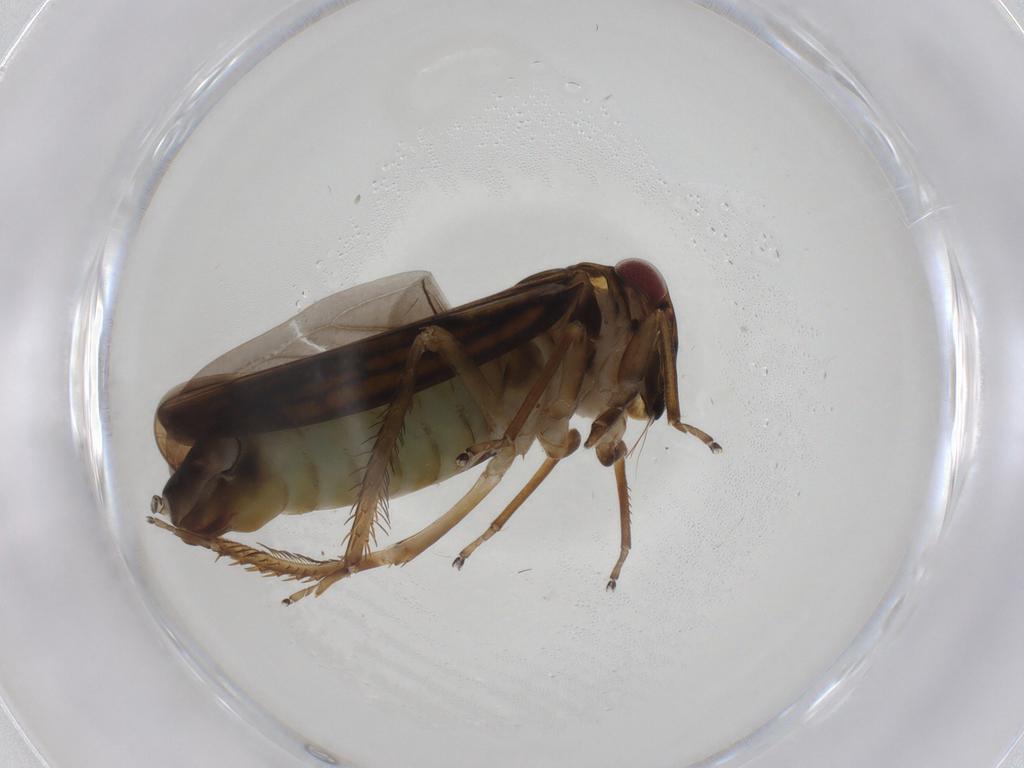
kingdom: Animalia
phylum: Arthropoda
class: Insecta
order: Hemiptera
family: Cicadellidae
